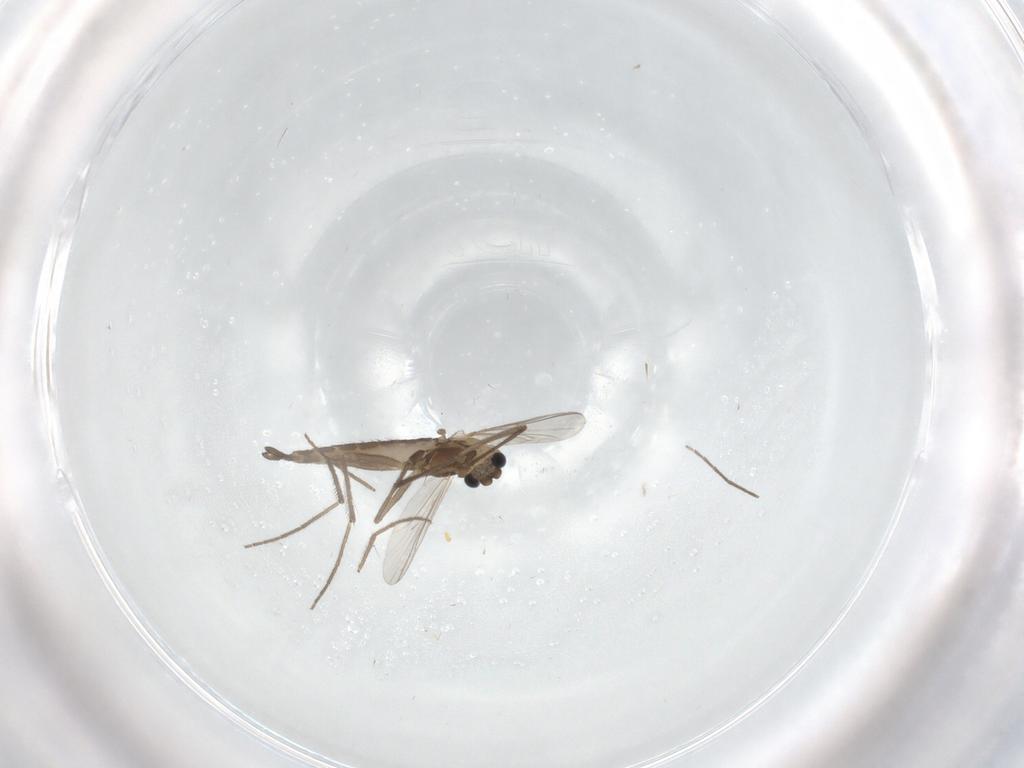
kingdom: Animalia
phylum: Arthropoda
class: Insecta
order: Diptera
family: Chironomidae
